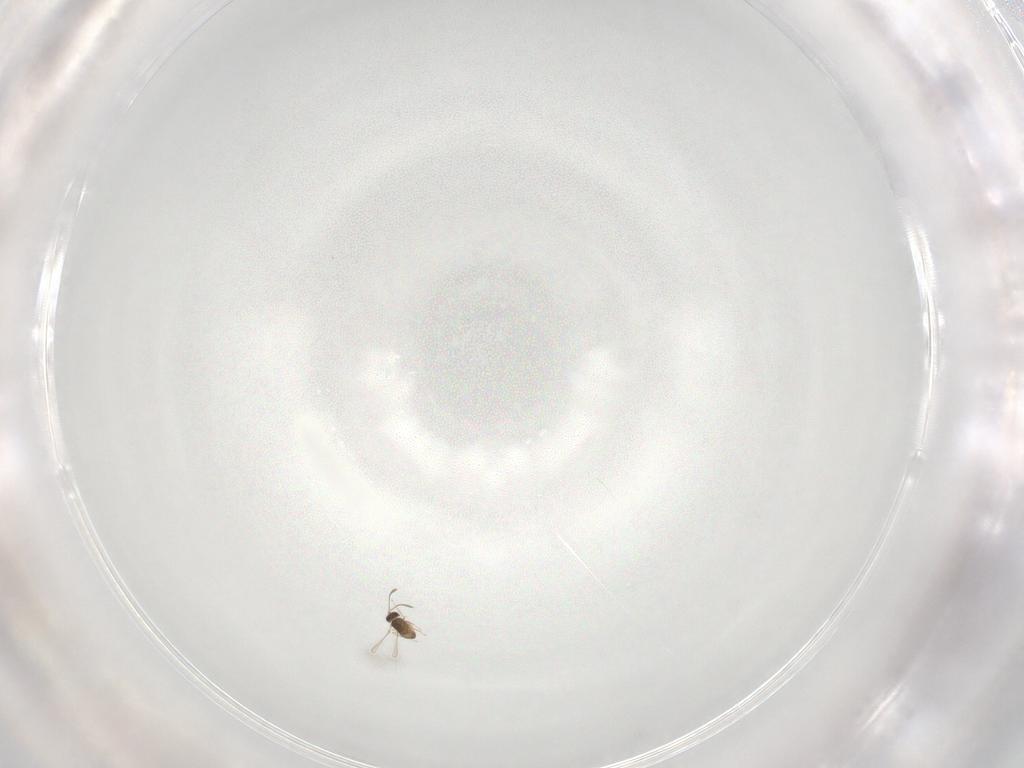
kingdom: Animalia
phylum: Arthropoda
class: Insecta
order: Hymenoptera
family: Mymaridae
